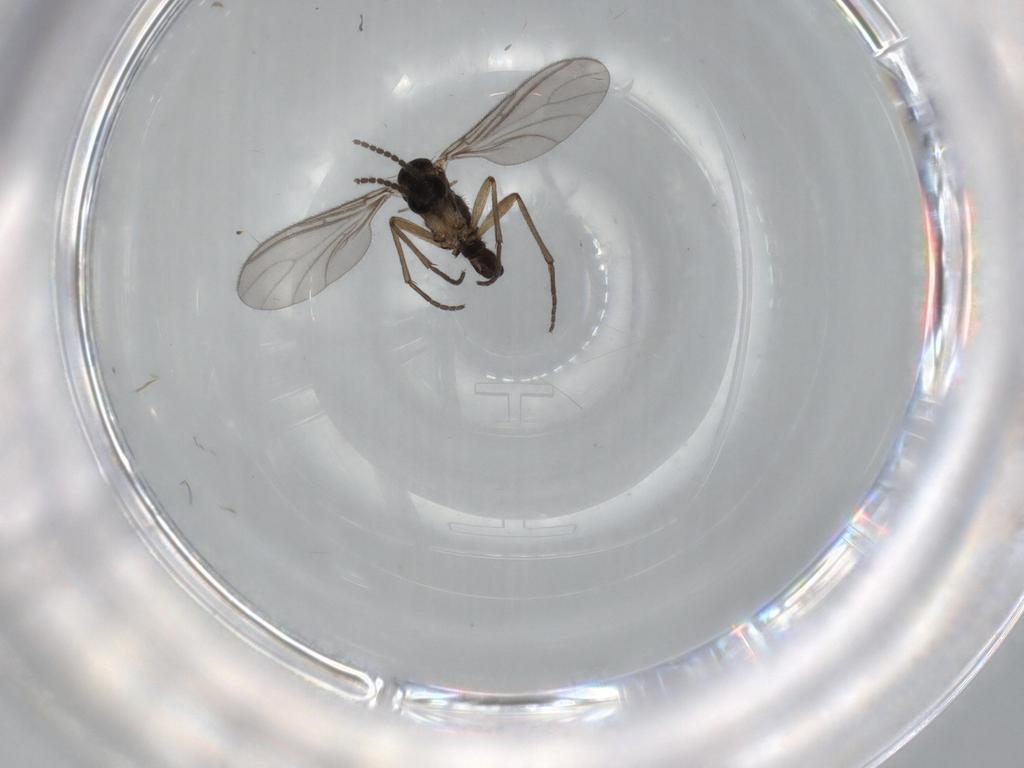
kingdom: Animalia
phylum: Arthropoda
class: Insecta
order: Diptera
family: Sciaridae
